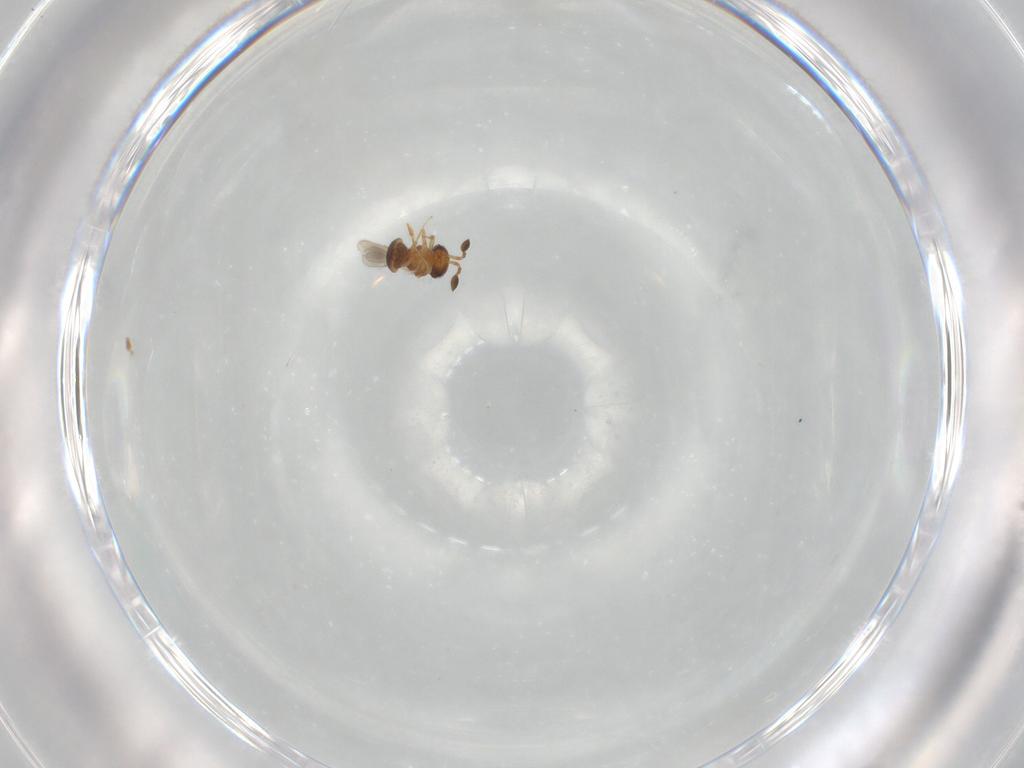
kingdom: Animalia
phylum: Arthropoda
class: Insecta
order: Hymenoptera
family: Scelionidae
